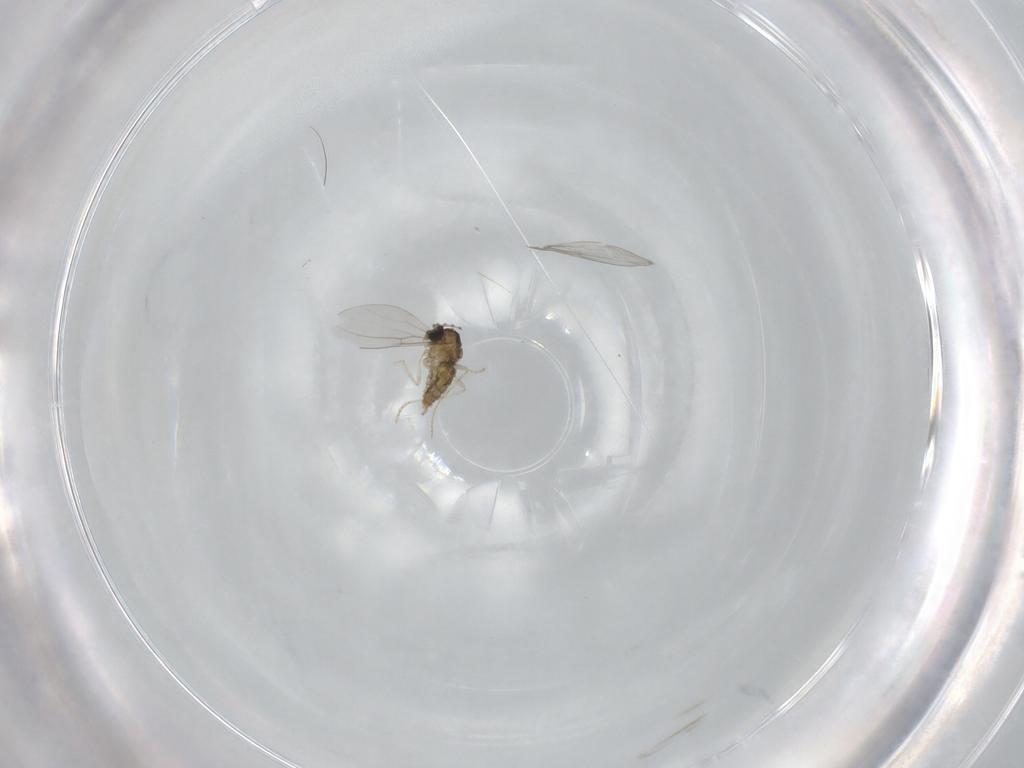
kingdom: Animalia
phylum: Arthropoda
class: Insecta
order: Diptera
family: Cecidomyiidae
